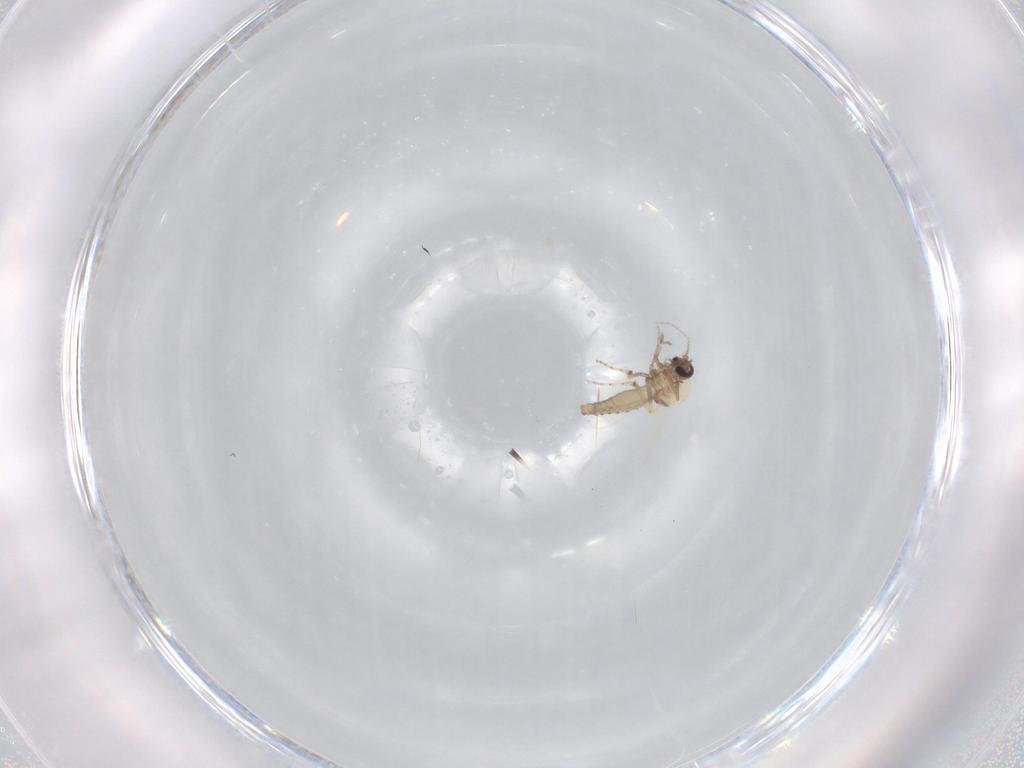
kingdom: Animalia
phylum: Arthropoda
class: Insecta
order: Diptera
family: Ceratopogonidae
